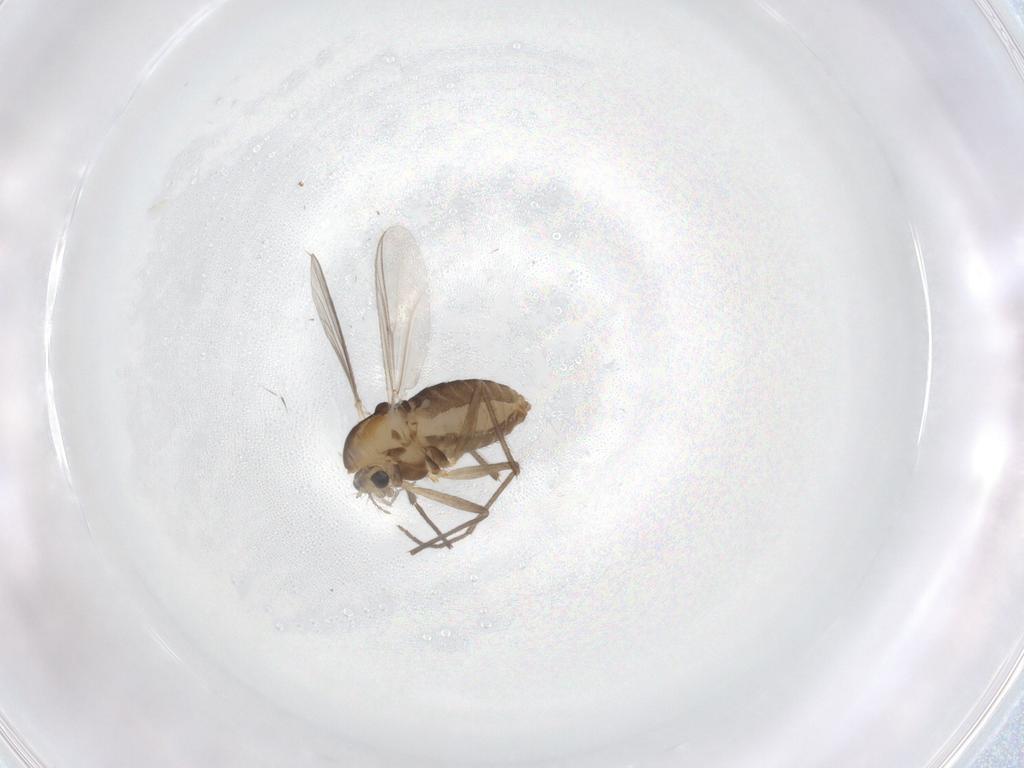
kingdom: Animalia
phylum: Arthropoda
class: Insecta
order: Diptera
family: Chironomidae
